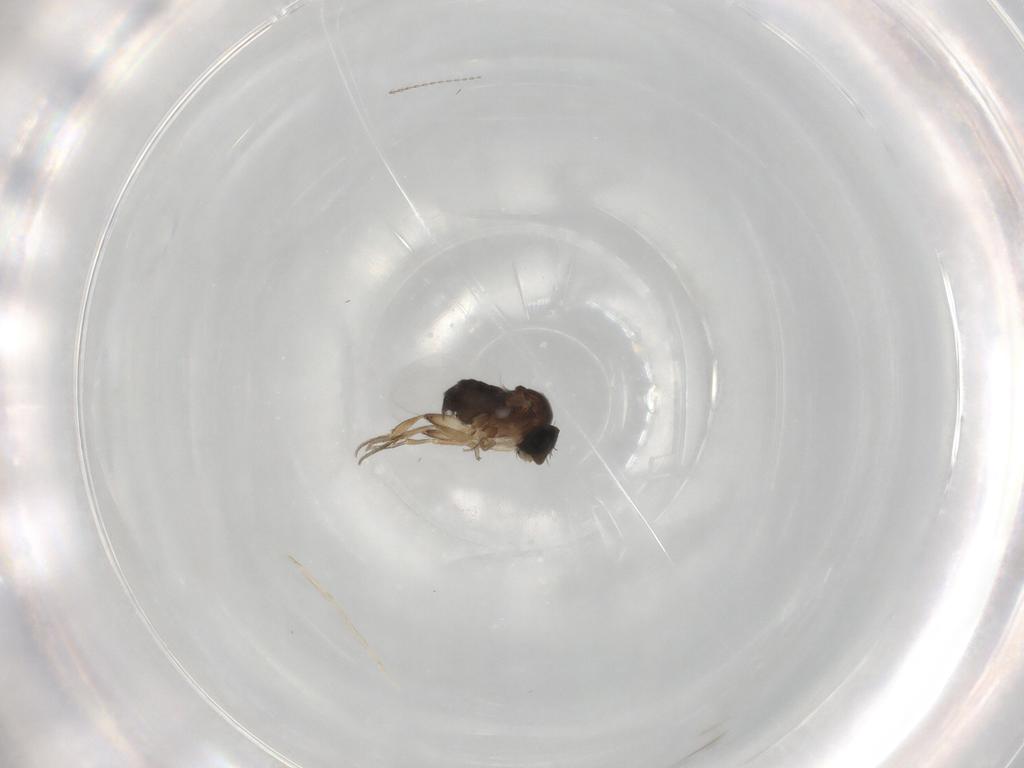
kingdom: Animalia
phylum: Arthropoda
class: Insecta
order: Diptera
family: Phoridae
